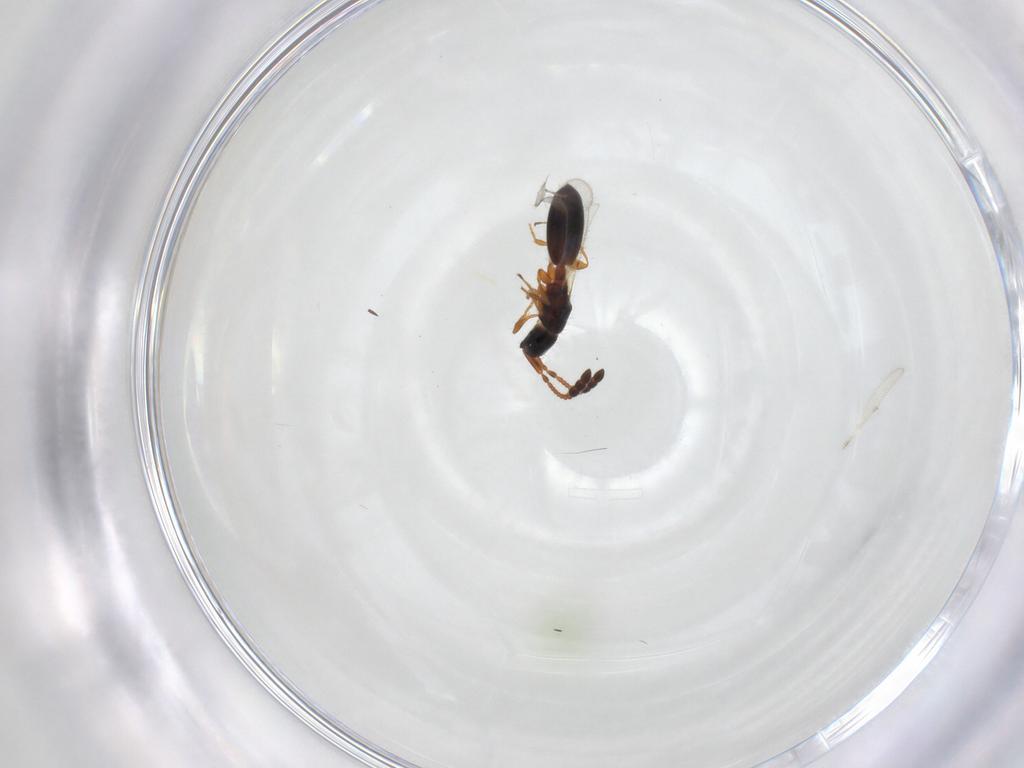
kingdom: Animalia
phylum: Arthropoda
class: Insecta
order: Hymenoptera
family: Diapriidae
